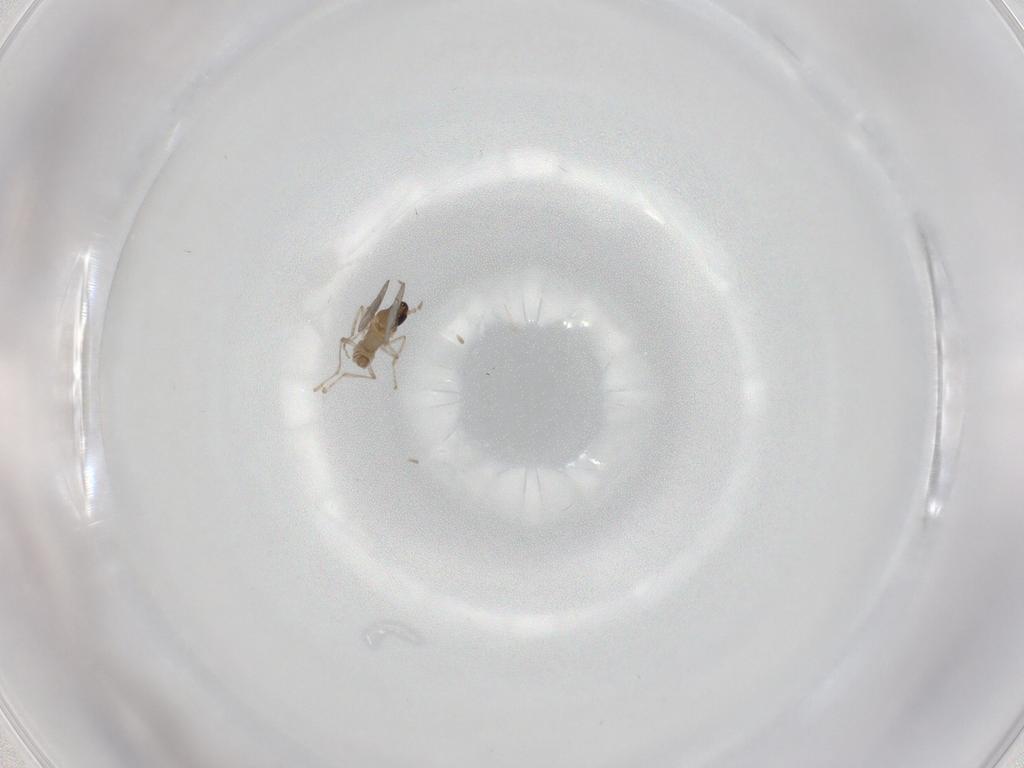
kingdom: Animalia
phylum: Arthropoda
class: Insecta
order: Diptera
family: Cecidomyiidae
